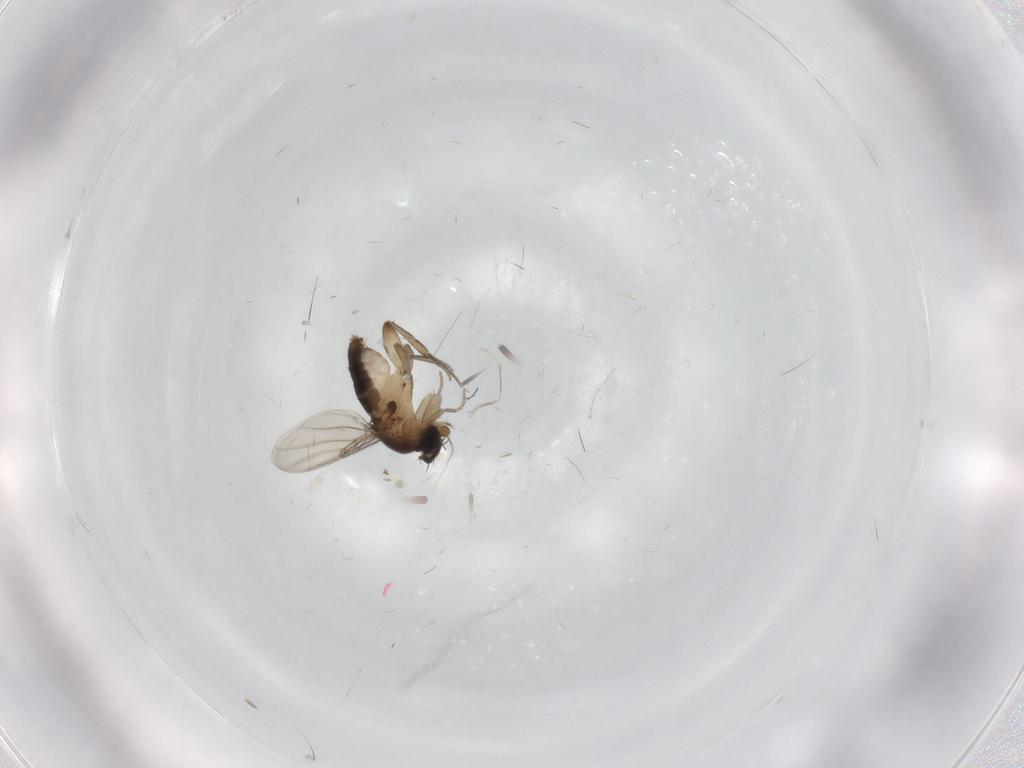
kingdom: Animalia
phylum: Arthropoda
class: Insecta
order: Diptera
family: Phoridae
